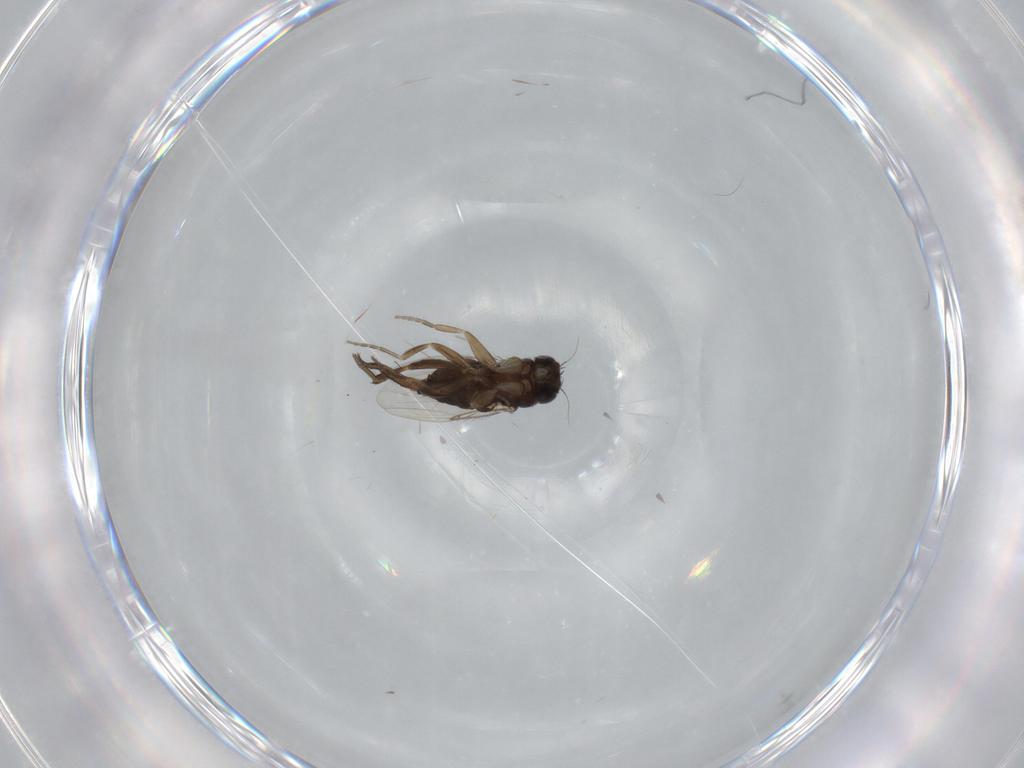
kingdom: Animalia
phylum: Arthropoda
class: Insecta
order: Diptera
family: Phoridae
